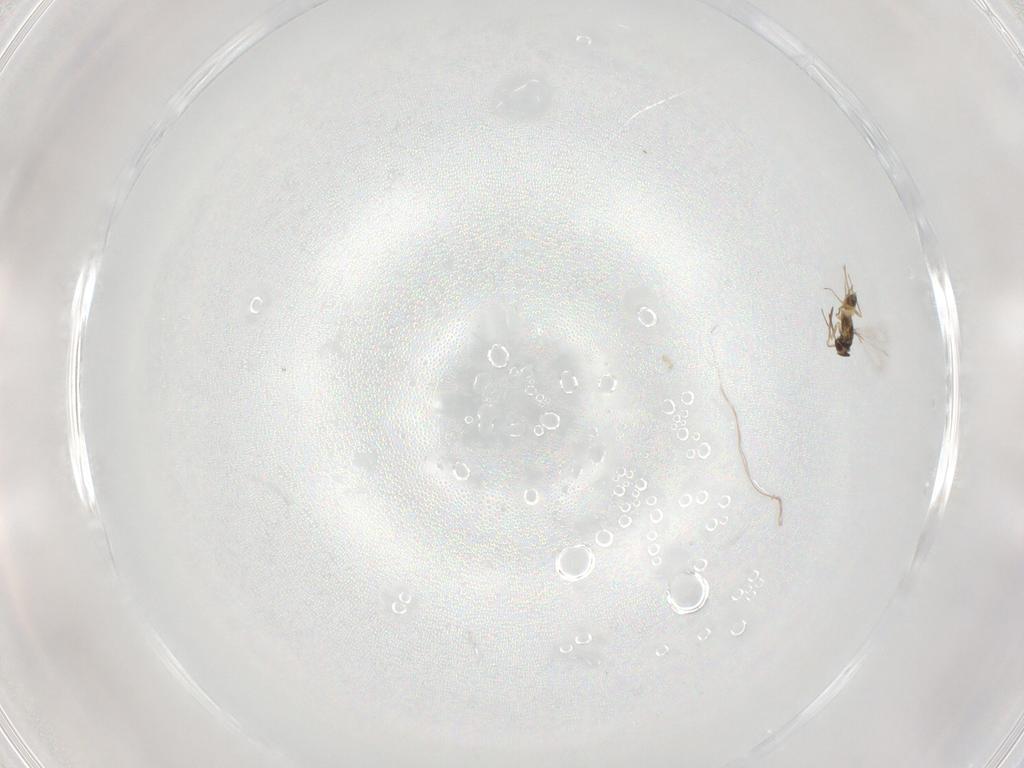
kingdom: Animalia
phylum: Arthropoda
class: Insecta
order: Hymenoptera
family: Mymaridae
